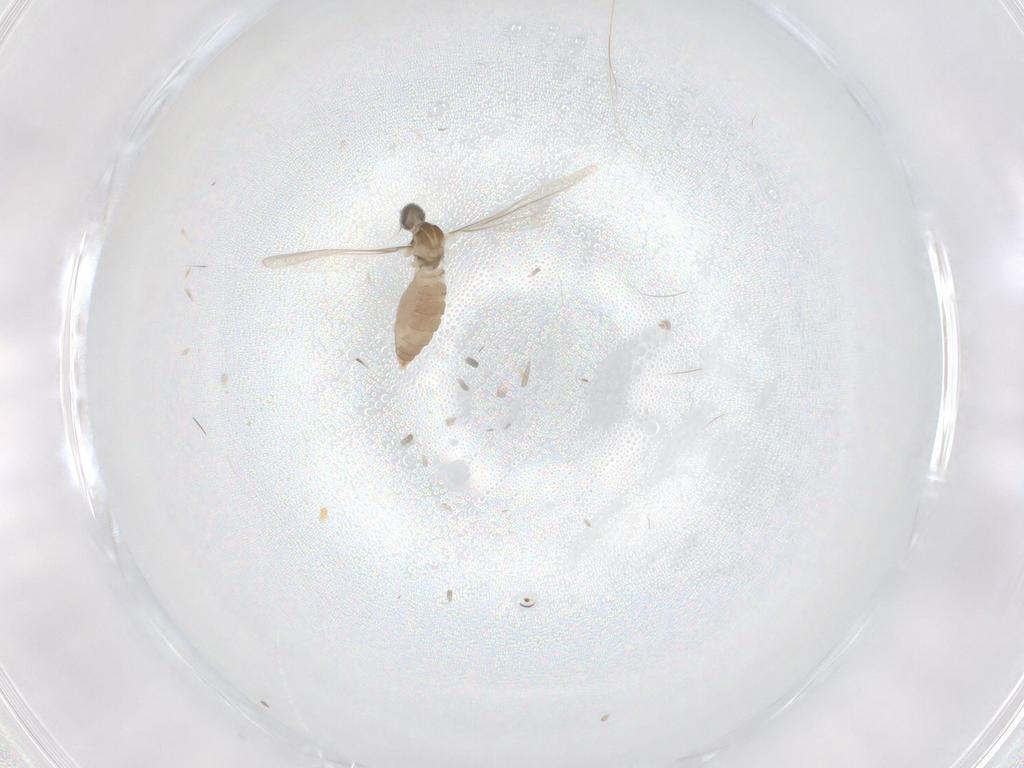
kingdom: Animalia
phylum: Arthropoda
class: Insecta
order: Diptera
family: Cecidomyiidae
